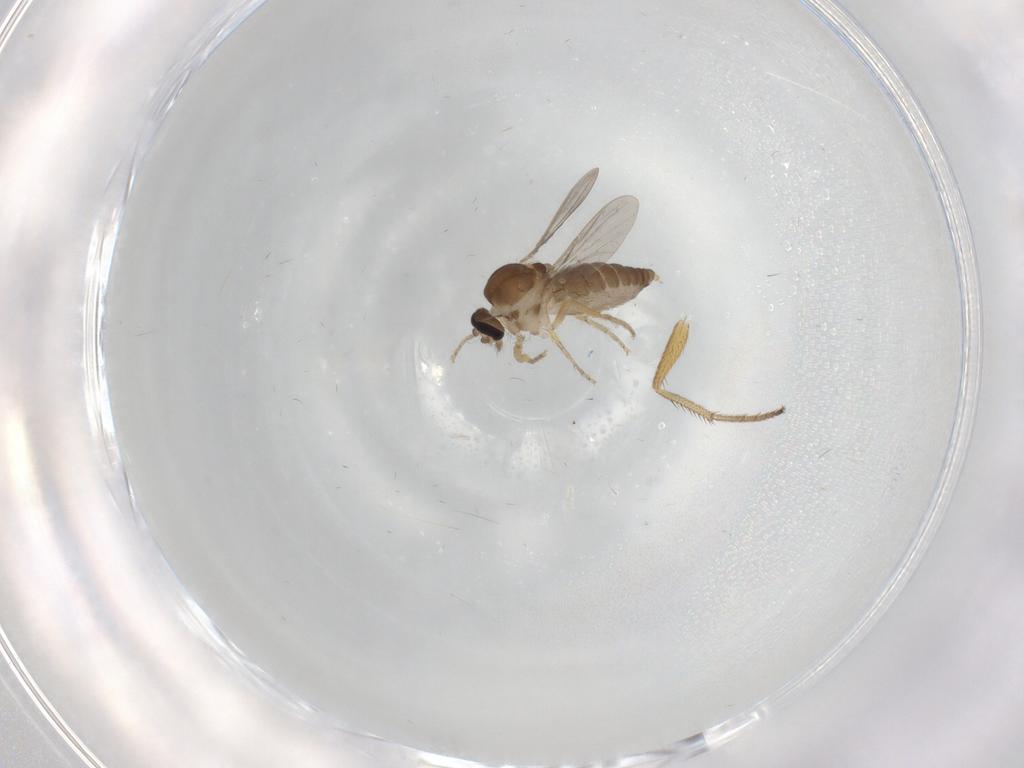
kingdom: Animalia
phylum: Arthropoda
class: Insecta
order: Diptera
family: Ceratopogonidae
